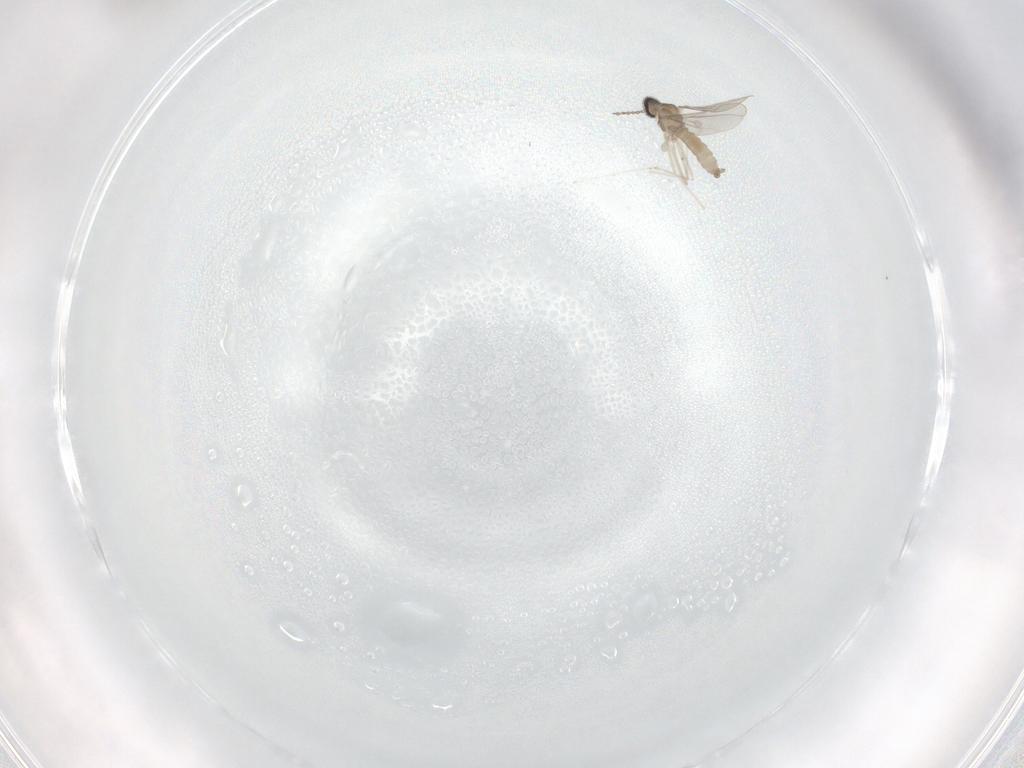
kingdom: Animalia
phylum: Arthropoda
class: Insecta
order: Diptera
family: Cecidomyiidae
